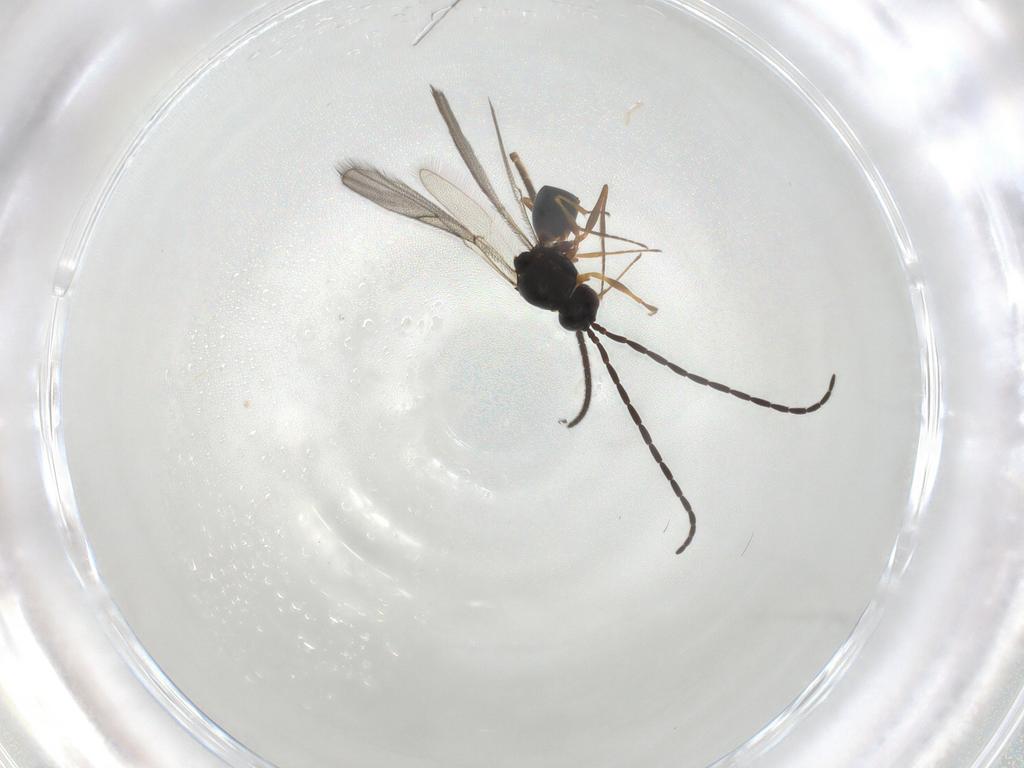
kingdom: Animalia
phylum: Arthropoda
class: Insecta
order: Hymenoptera
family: Figitidae
